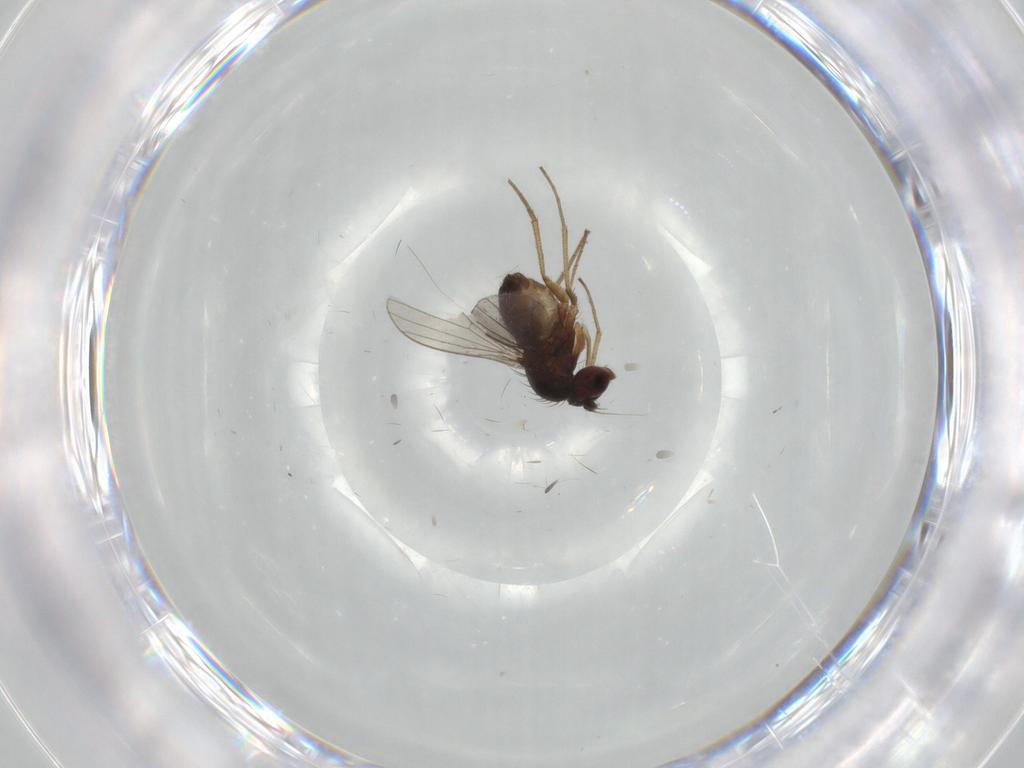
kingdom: Animalia
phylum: Arthropoda
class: Insecta
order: Diptera
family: Dolichopodidae
